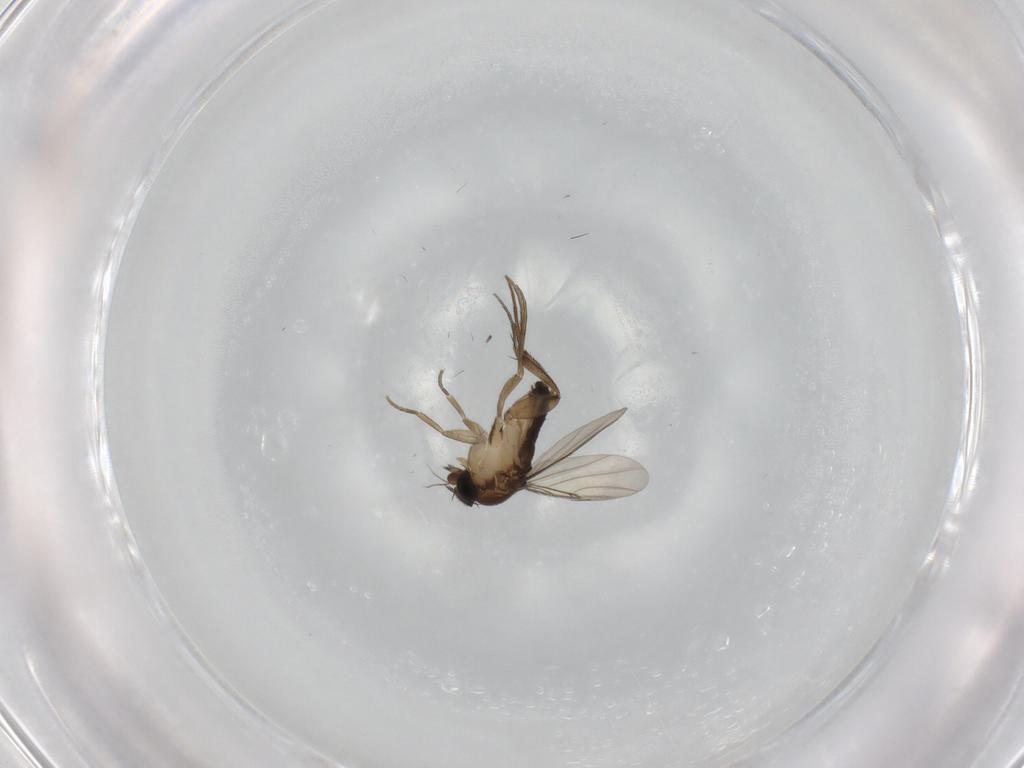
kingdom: Animalia
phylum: Arthropoda
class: Insecta
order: Diptera
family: Phoridae
